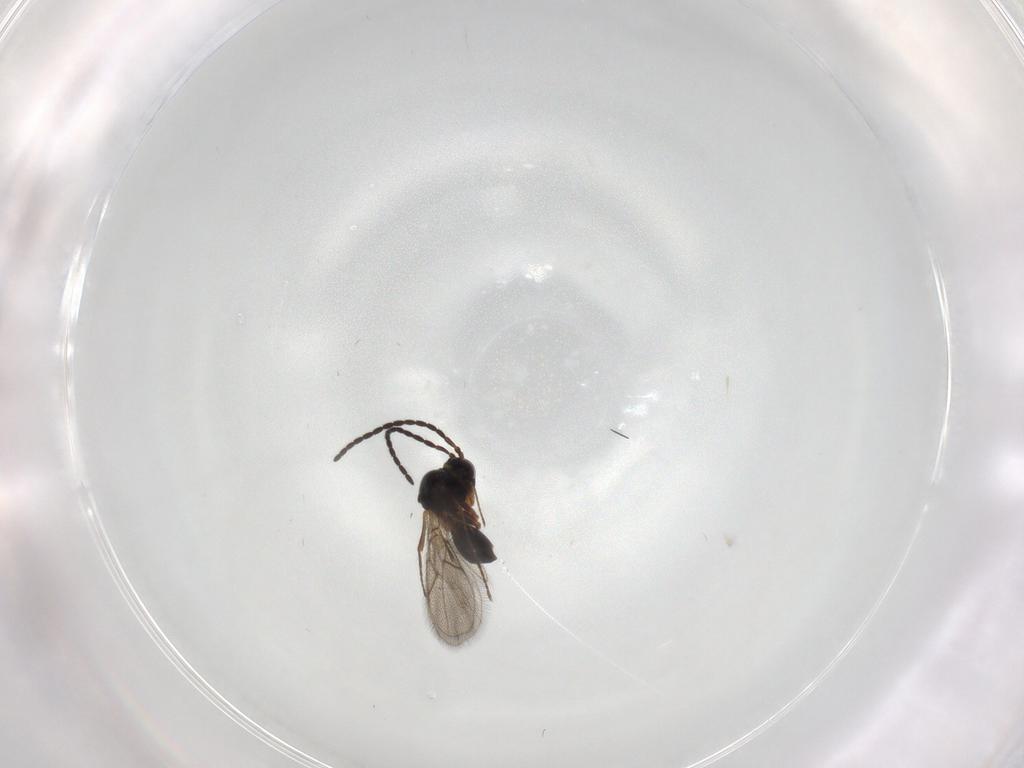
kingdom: Animalia
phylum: Arthropoda
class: Insecta
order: Hymenoptera
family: Figitidae
